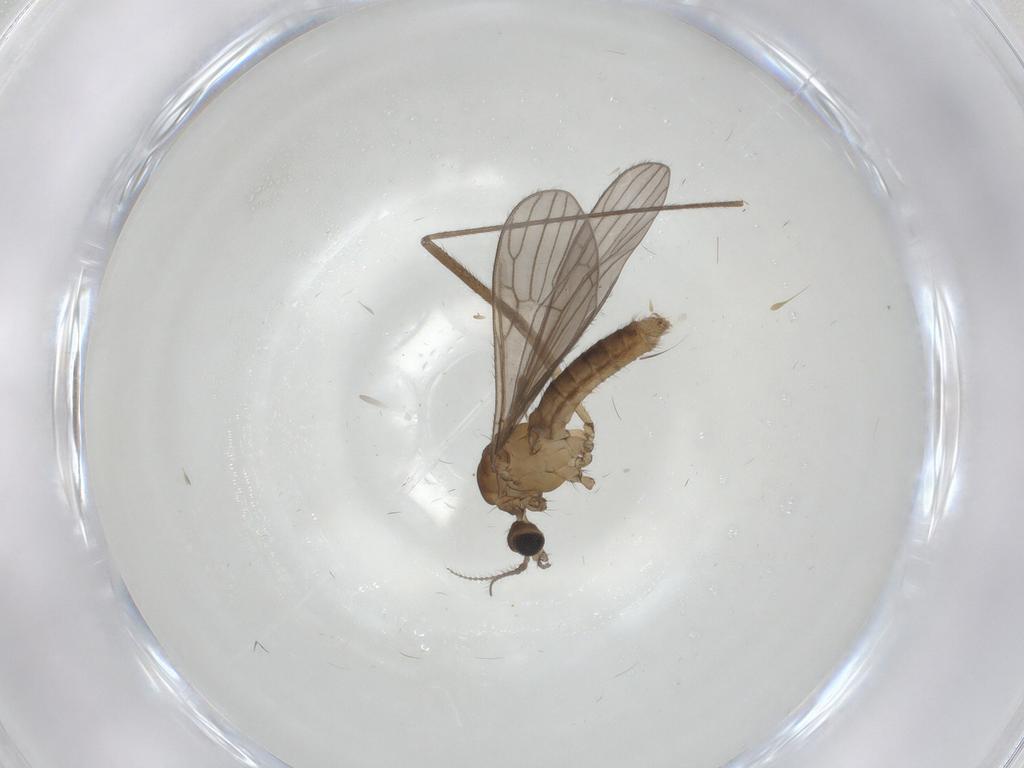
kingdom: Animalia
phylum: Arthropoda
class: Insecta
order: Diptera
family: Cecidomyiidae
